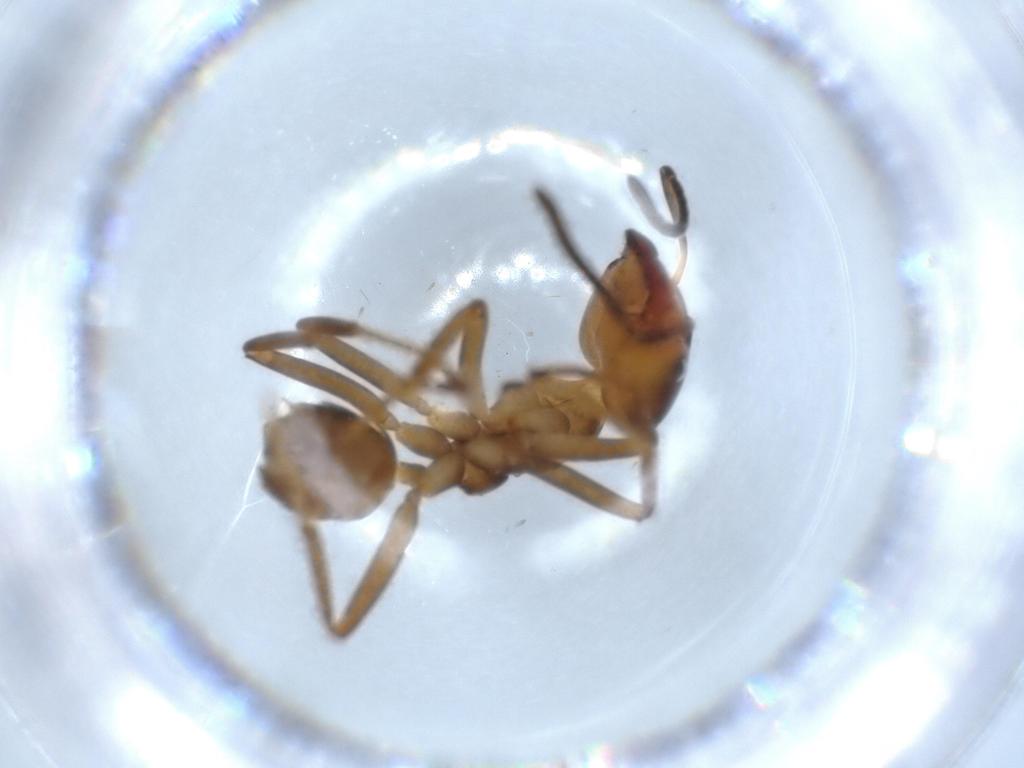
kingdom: Animalia
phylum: Arthropoda
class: Insecta
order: Hymenoptera
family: Formicidae
